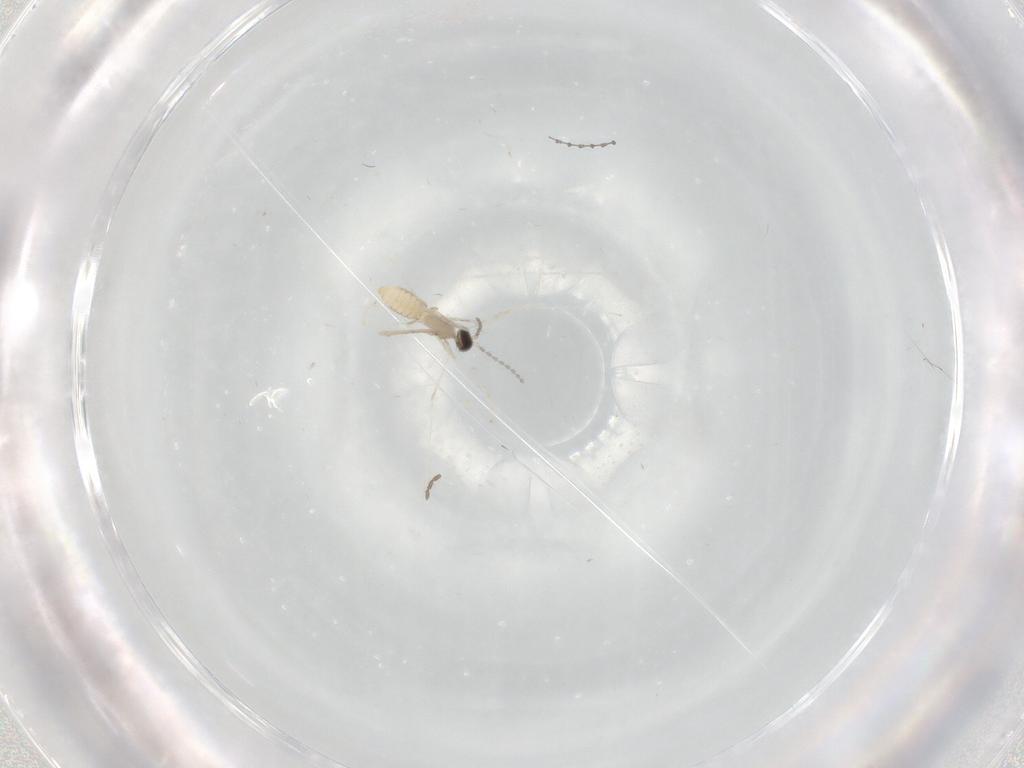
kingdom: Animalia
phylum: Arthropoda
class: Insecta
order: Diptera
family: Cecidomyiidae
